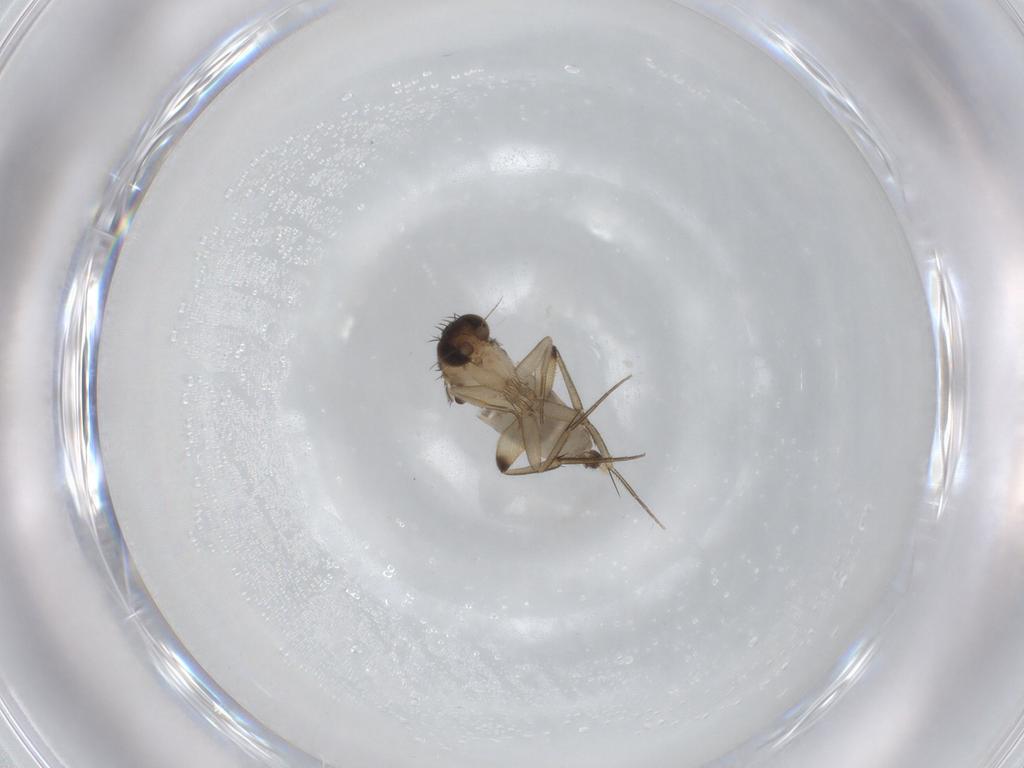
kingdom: Animalia
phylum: Arthropoda
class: Insecta
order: Diptera
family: Phoridae
